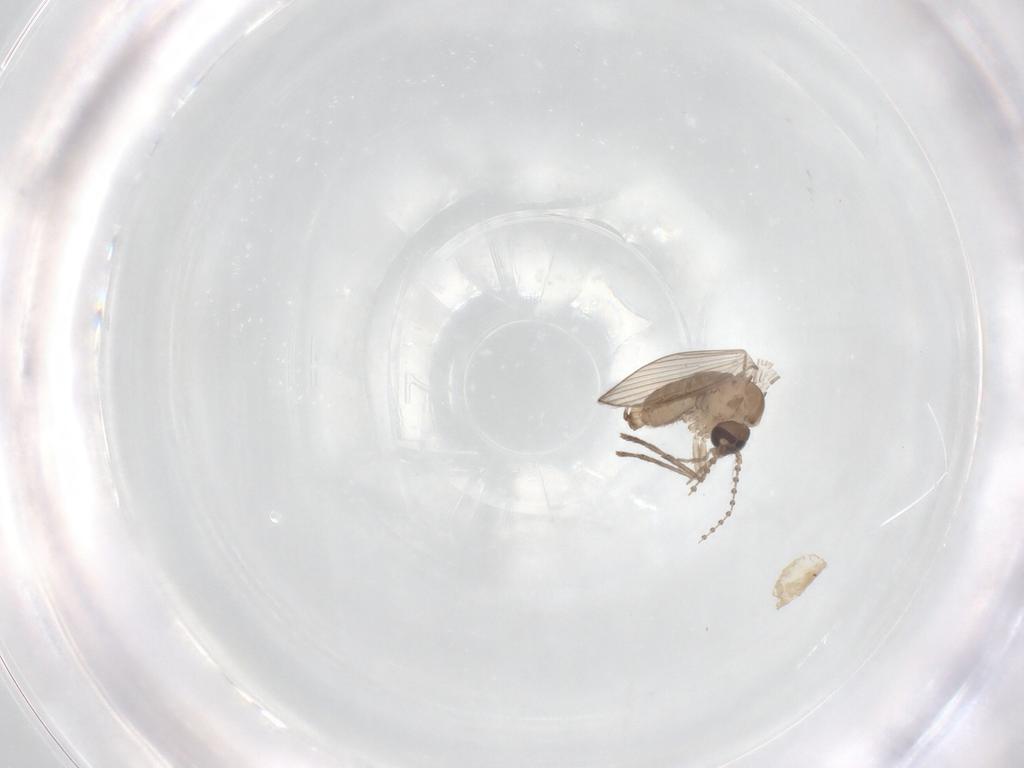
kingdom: Animalia
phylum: Arthropoda
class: Insecta
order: Diptera
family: Psychodidae
